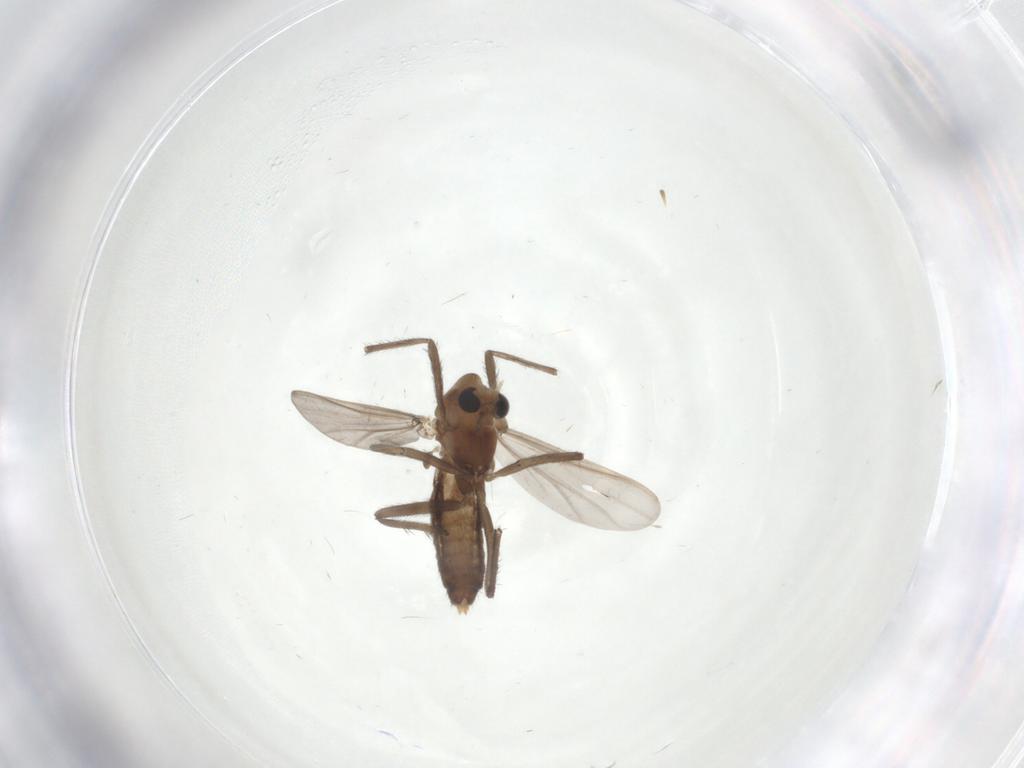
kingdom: Animalia
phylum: Arthropoda
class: Insecta
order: Diptera
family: Chironomidae
